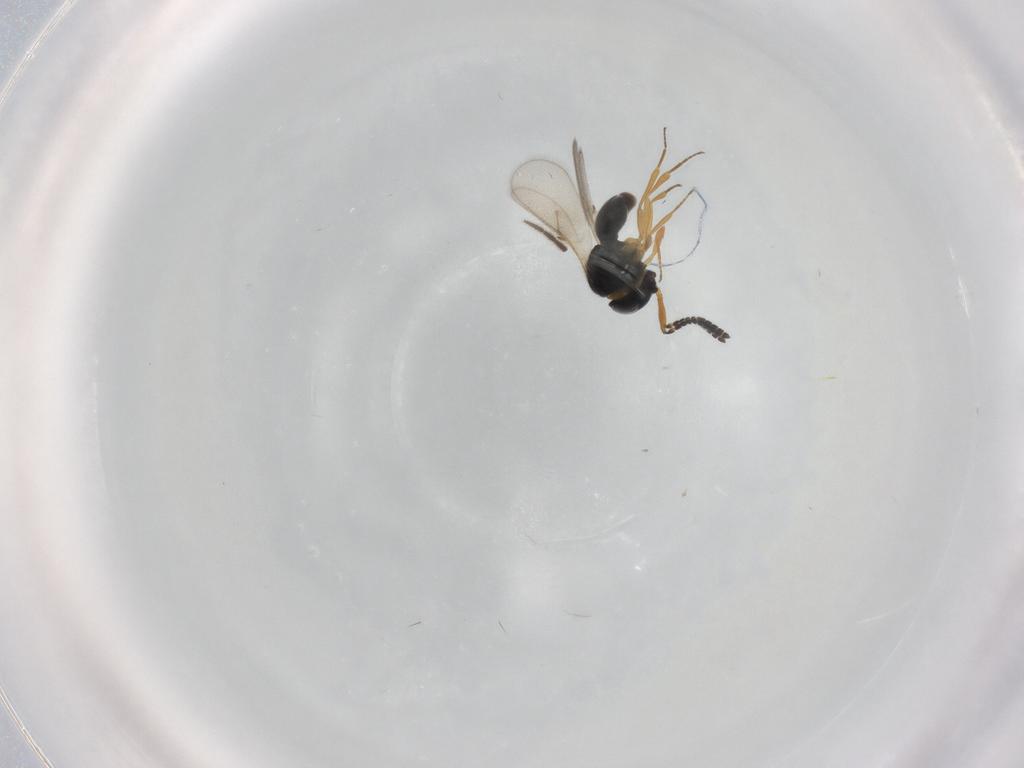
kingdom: Animalia
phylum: Arthropoda
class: Insecta
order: Hymenoptera
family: Scelionidae
